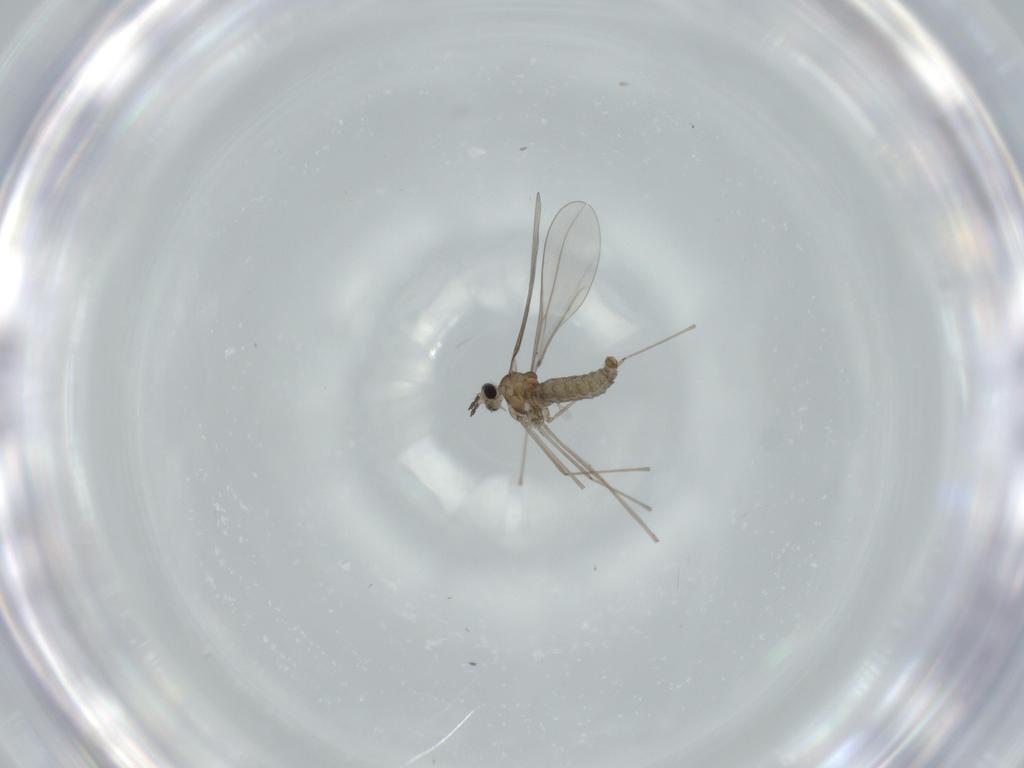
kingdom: Animalia
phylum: Arthropoda
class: Insecta
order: Diptera
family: Cecidomyiidae
